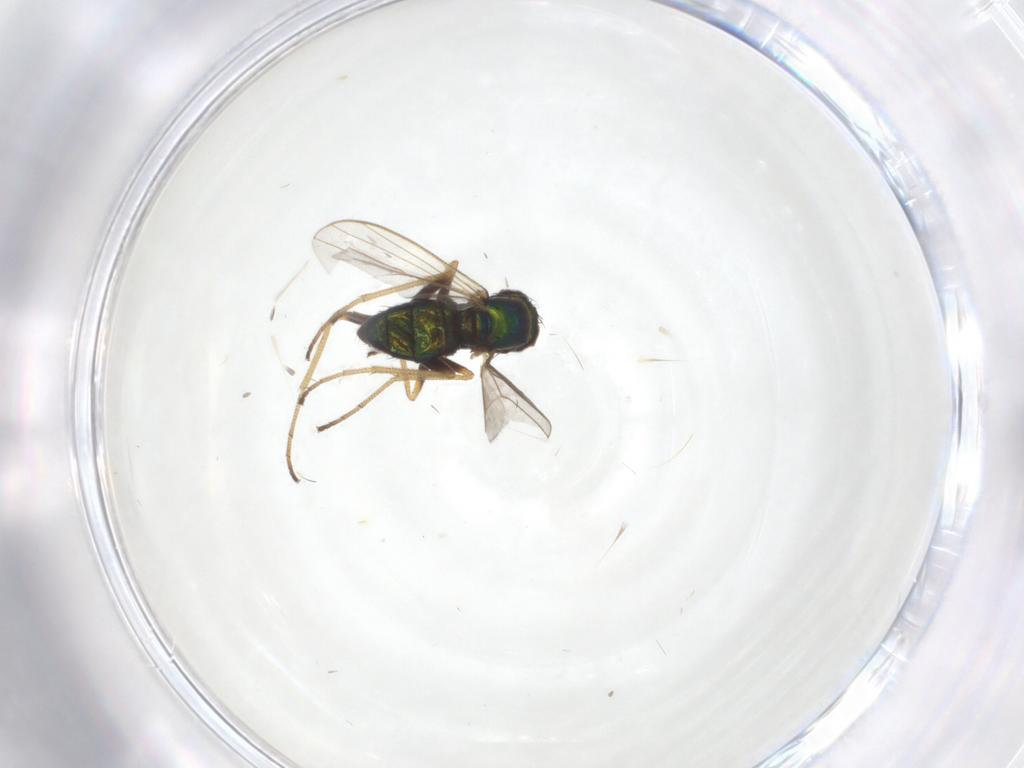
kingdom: Animalia
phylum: Arthropoda
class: Insecta
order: Diptera
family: Dolichopodidae
